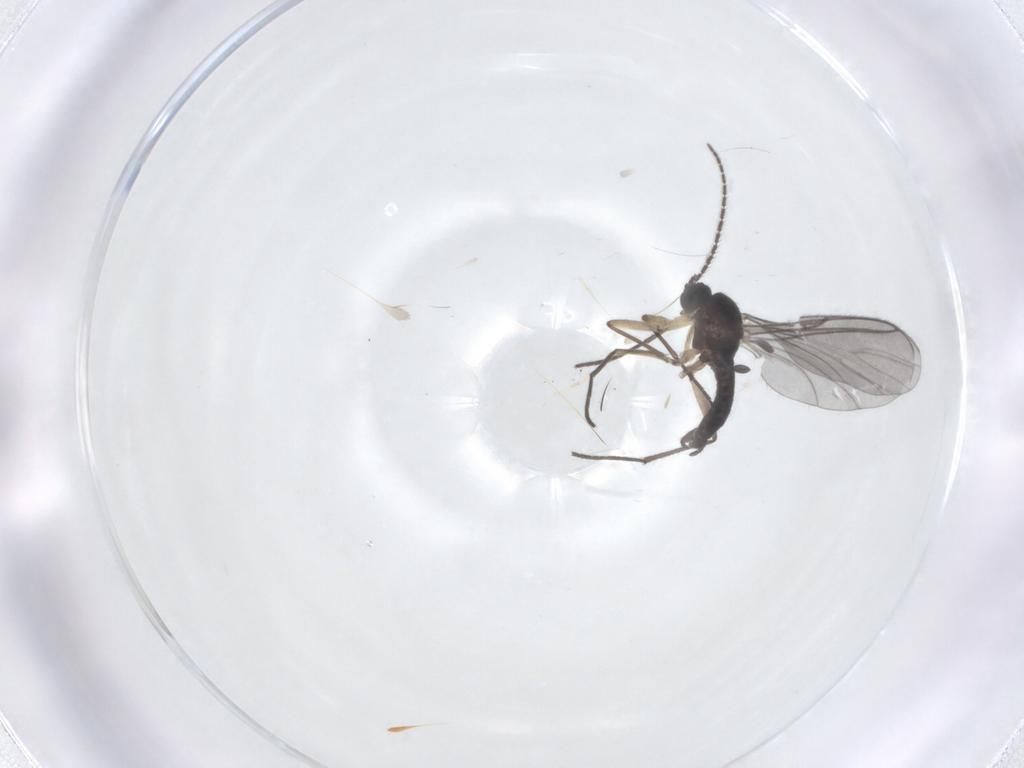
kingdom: Animalia
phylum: Arthropoda
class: Insecta
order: Diptera
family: Sciaridae
